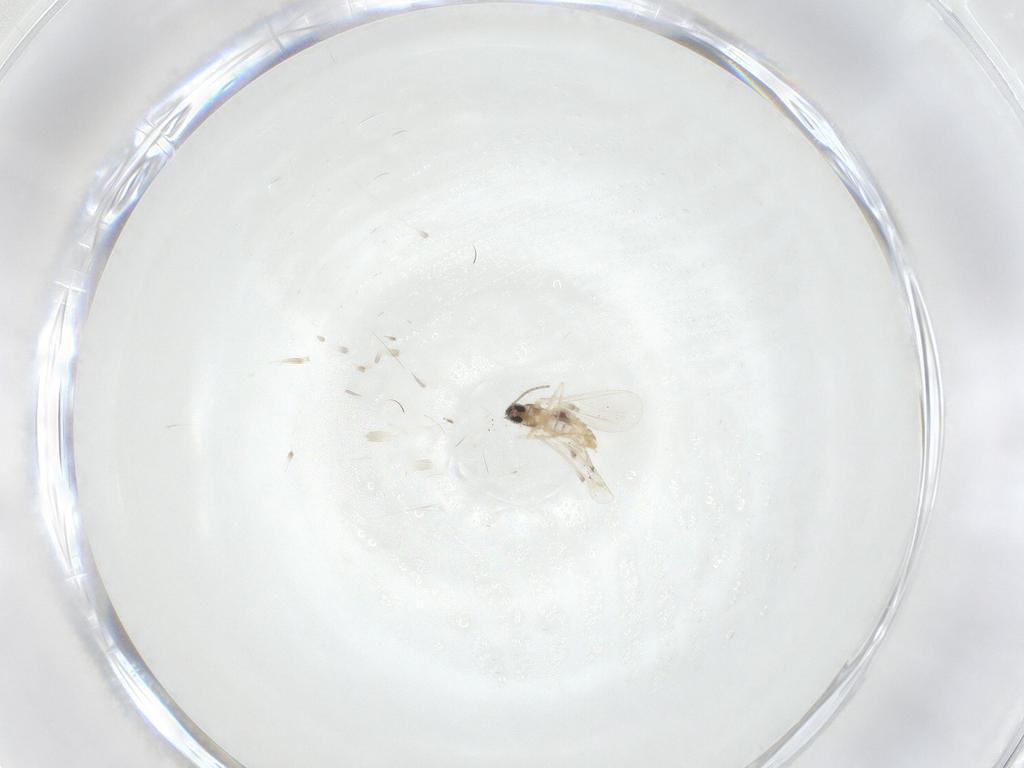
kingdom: Animalia
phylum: Arthropoda
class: Insecta
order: Diptera
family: Cecidomyiidae
